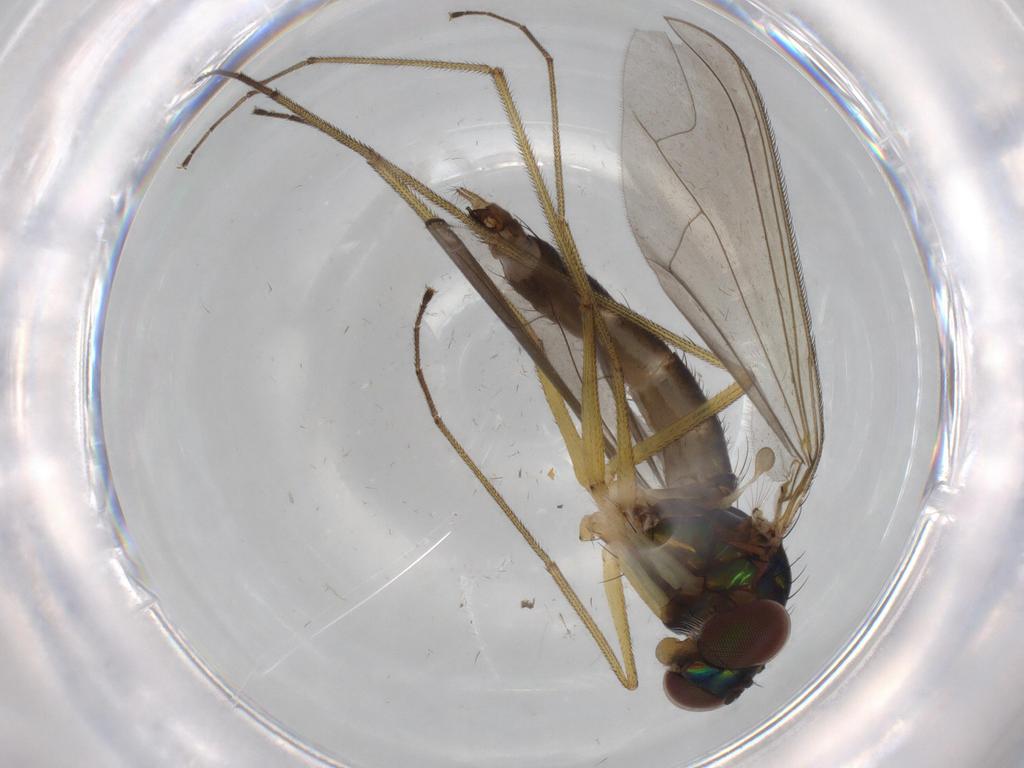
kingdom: Animalia
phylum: Arthropoda
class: Insecta
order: Diptera
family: Dolichopodidae
